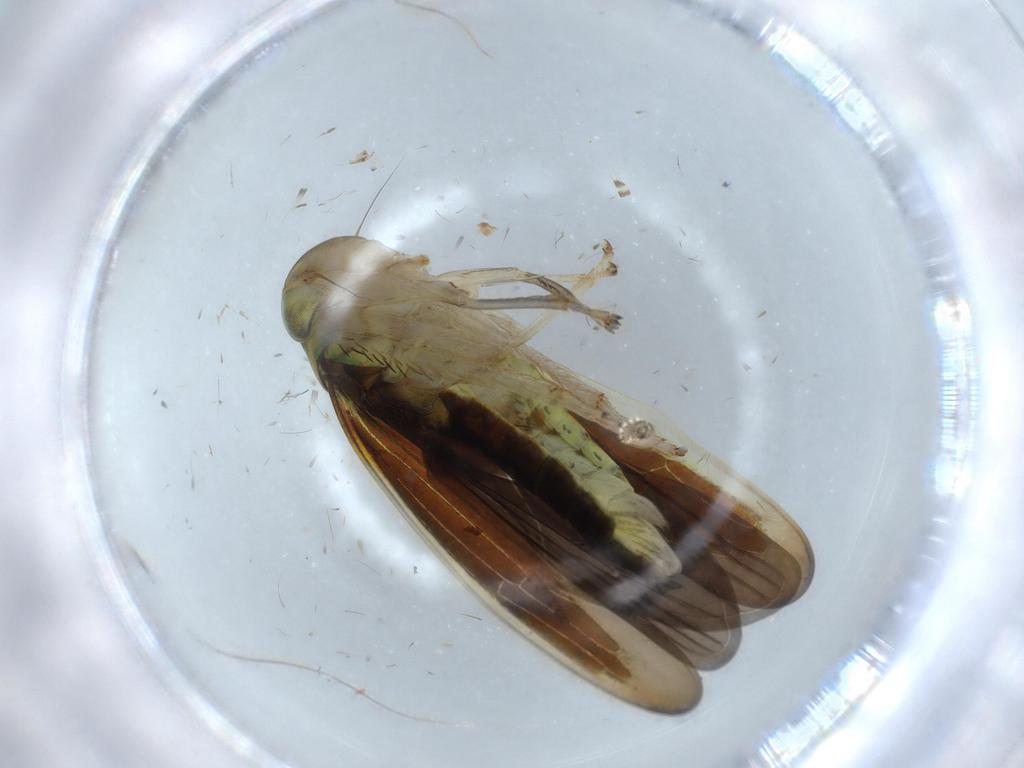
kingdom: Animalia
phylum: Arthropoda
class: Insecta
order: Hemiptera
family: Cicadellidae
